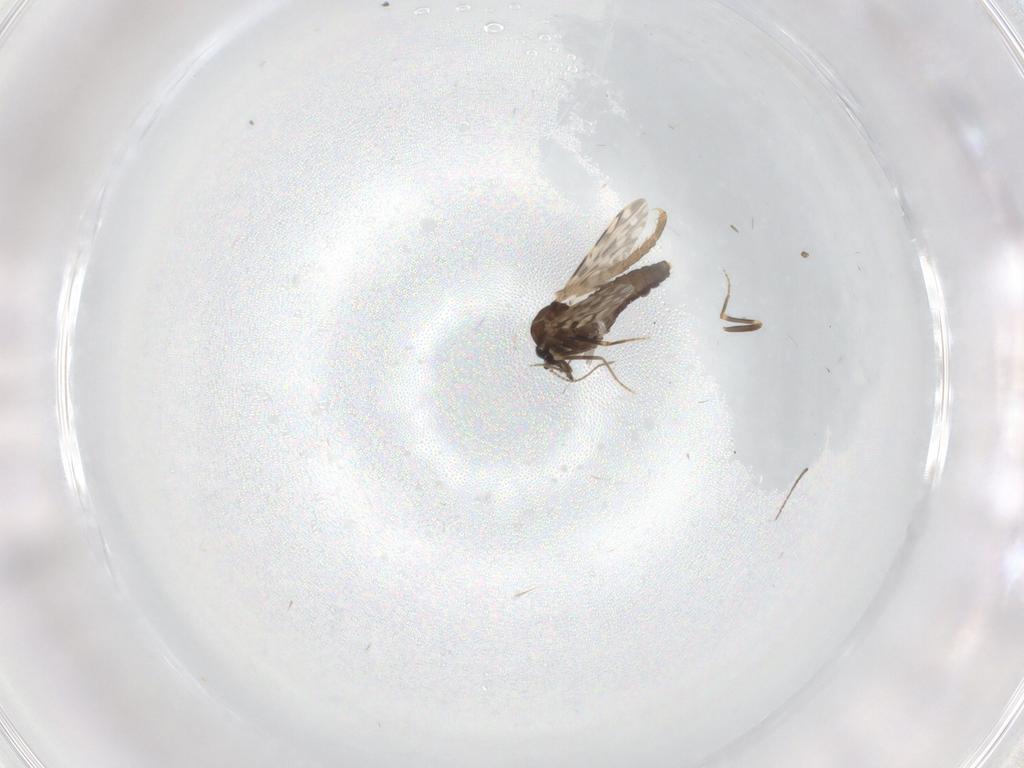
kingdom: Animalia
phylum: Arthropoda
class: Insecta
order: Diptera
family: Ceratopogonidae
